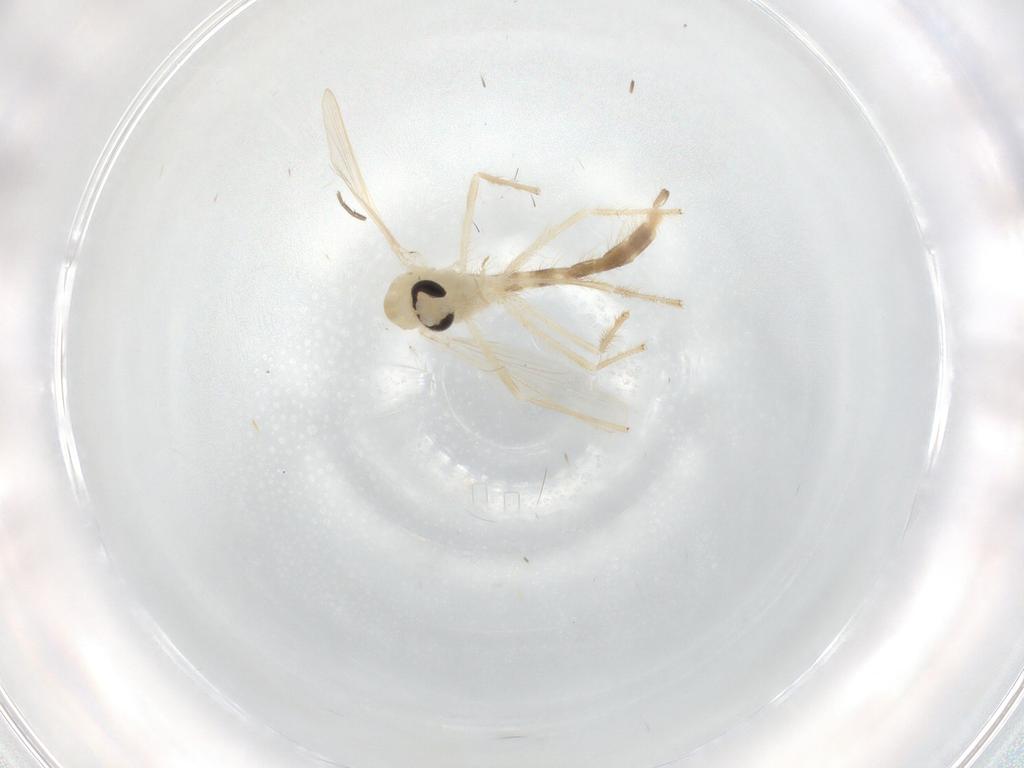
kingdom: Animalia
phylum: Arthropoda
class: Insecta
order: Diptera
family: Chironomidae
